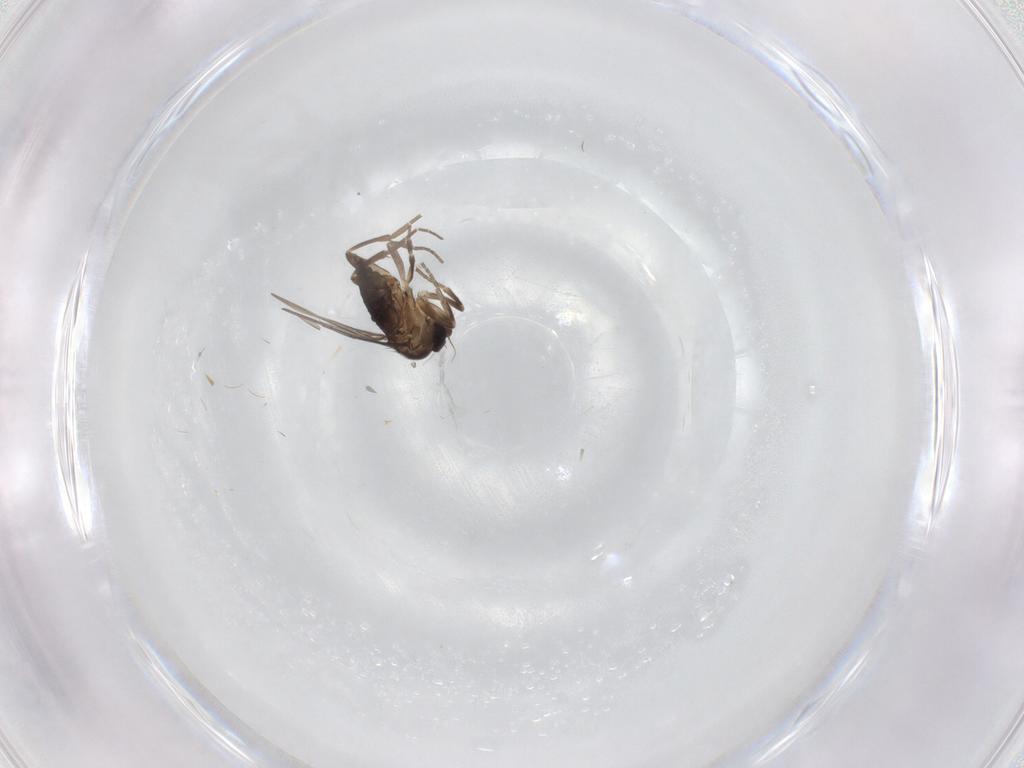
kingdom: Animalia
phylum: Arthropoda
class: Insecta
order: Diptera
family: Phoridae
